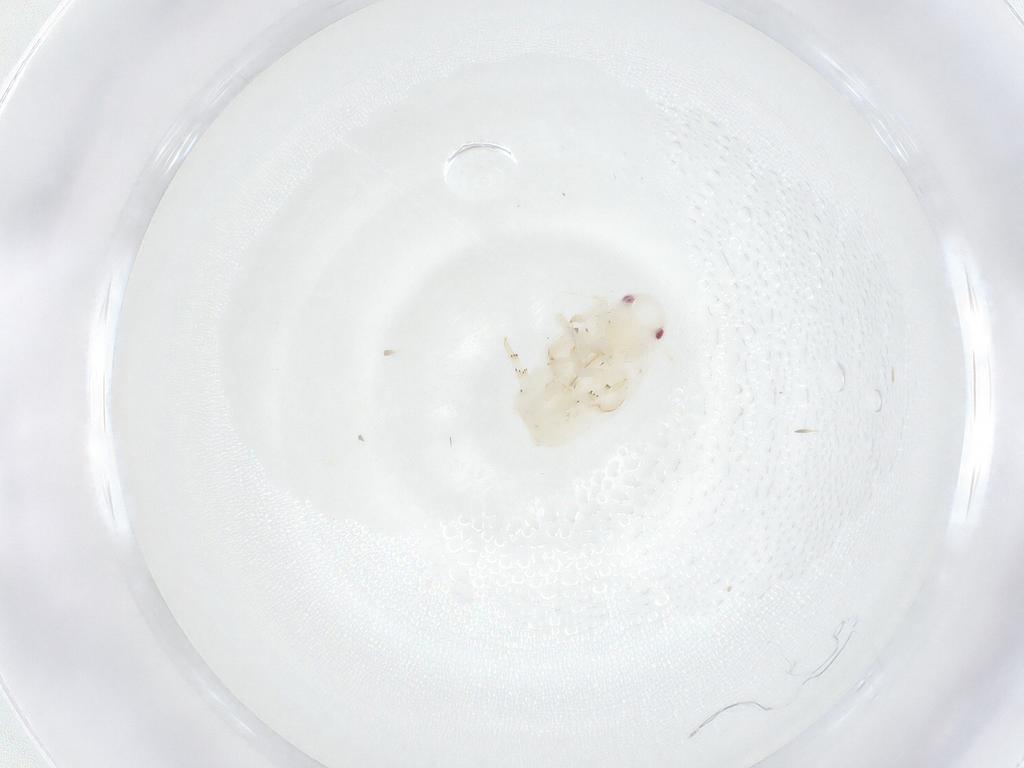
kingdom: Animalia
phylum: Arthropoda
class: Insecta
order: Hemiptera
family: Fulgoroidea_incertae_sedis
